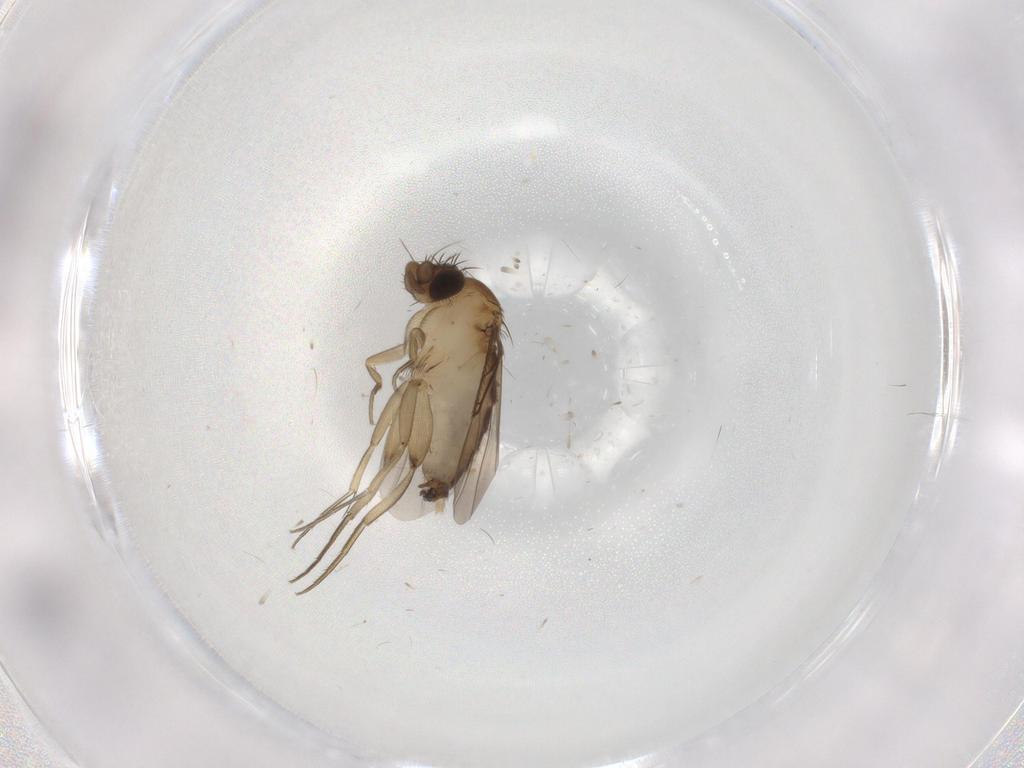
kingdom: Animalia
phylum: Arthropoda
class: Insecta
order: Diptera
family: Phoridae
